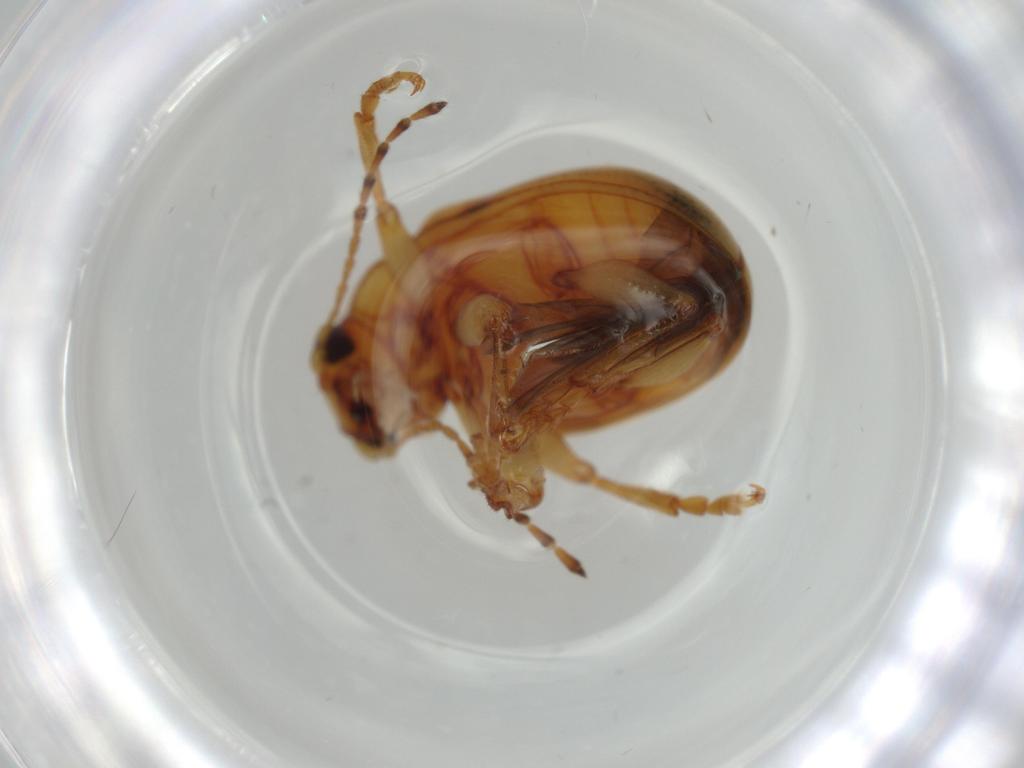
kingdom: Animalia
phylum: Arthropoda
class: Insecta
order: Coleoptera
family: Chrysomelidae
